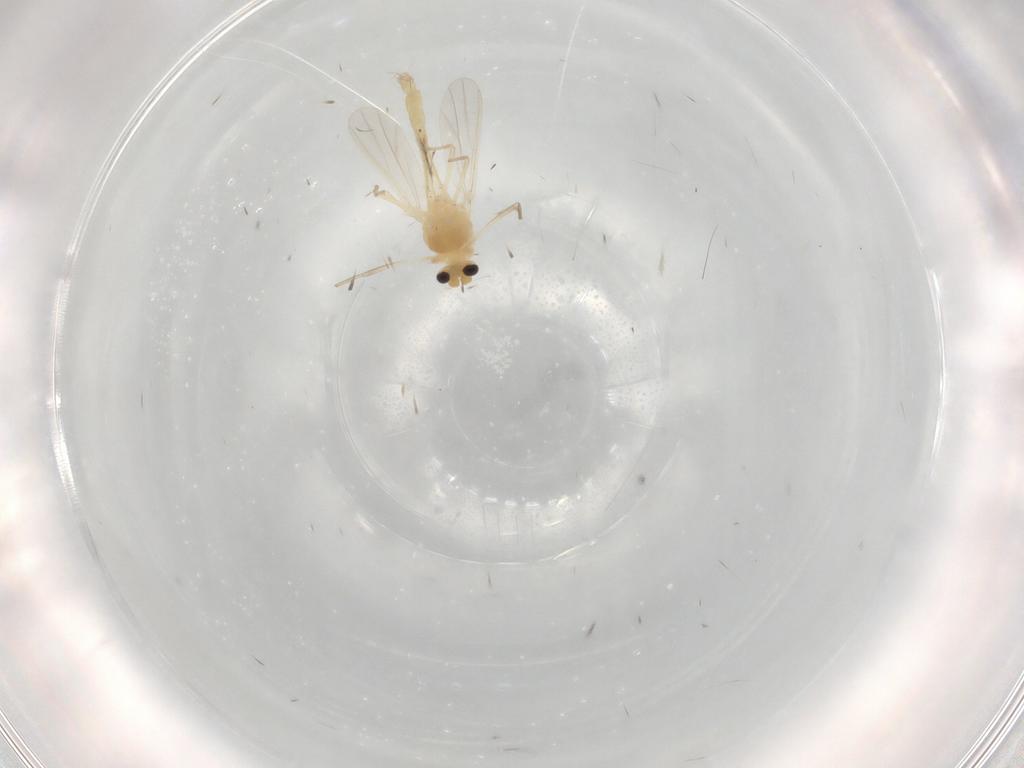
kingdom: Animalia
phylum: Arthropoda
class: Insecta
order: Diptera
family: Chironomidae
